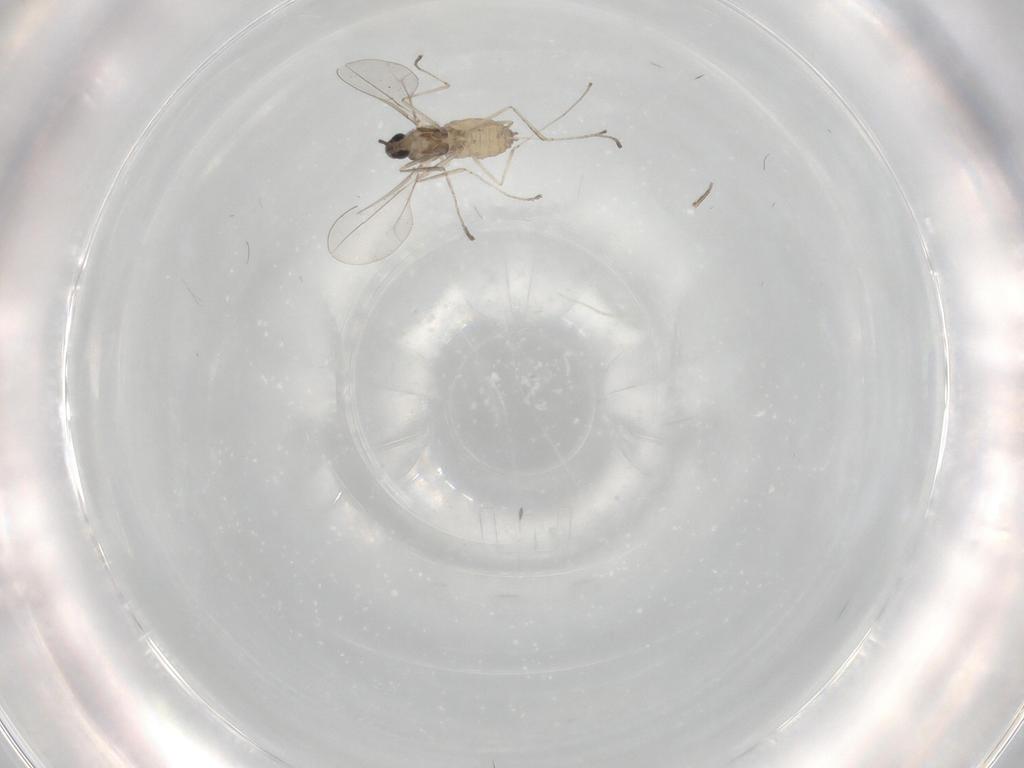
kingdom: Animalia
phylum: Arthropoda
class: Insecta
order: Diptera
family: Cecidomyiidae
